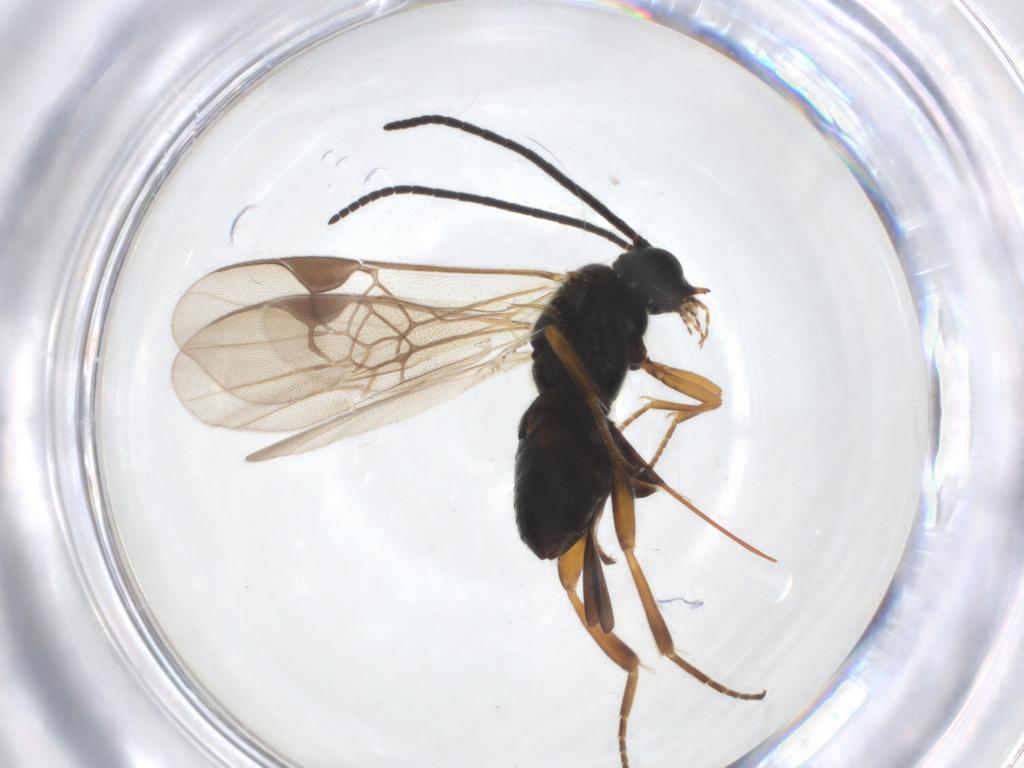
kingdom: Animalia
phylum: Arthropoda
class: Insecta
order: Hymenoptera
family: Braconidae
